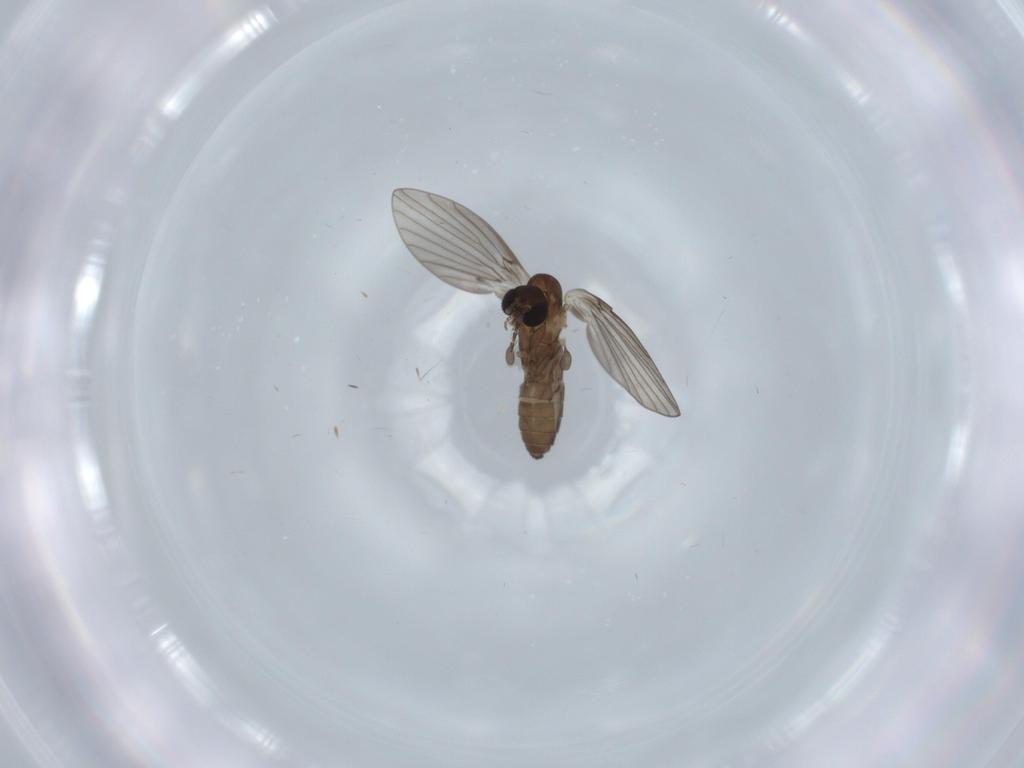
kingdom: Animalia
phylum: Arthropoda
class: Insecta
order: Diptera
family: Psychodidae
